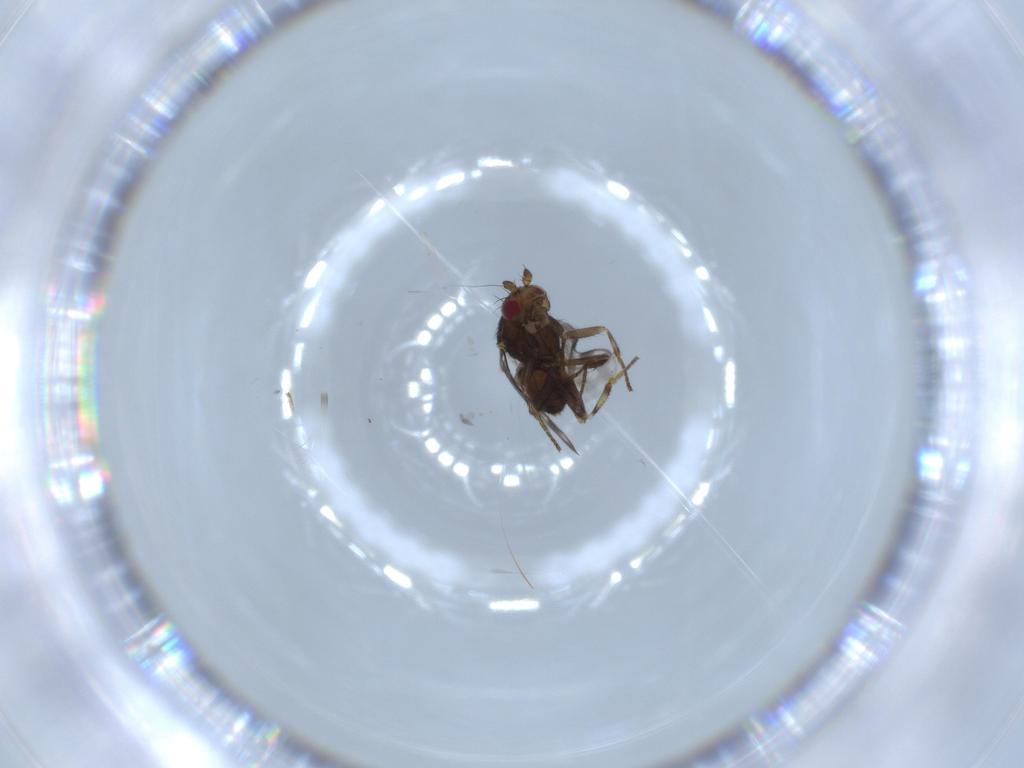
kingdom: Animalia
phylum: Arthropoda
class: Insecta
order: Diptera
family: Sphaeroceridae
